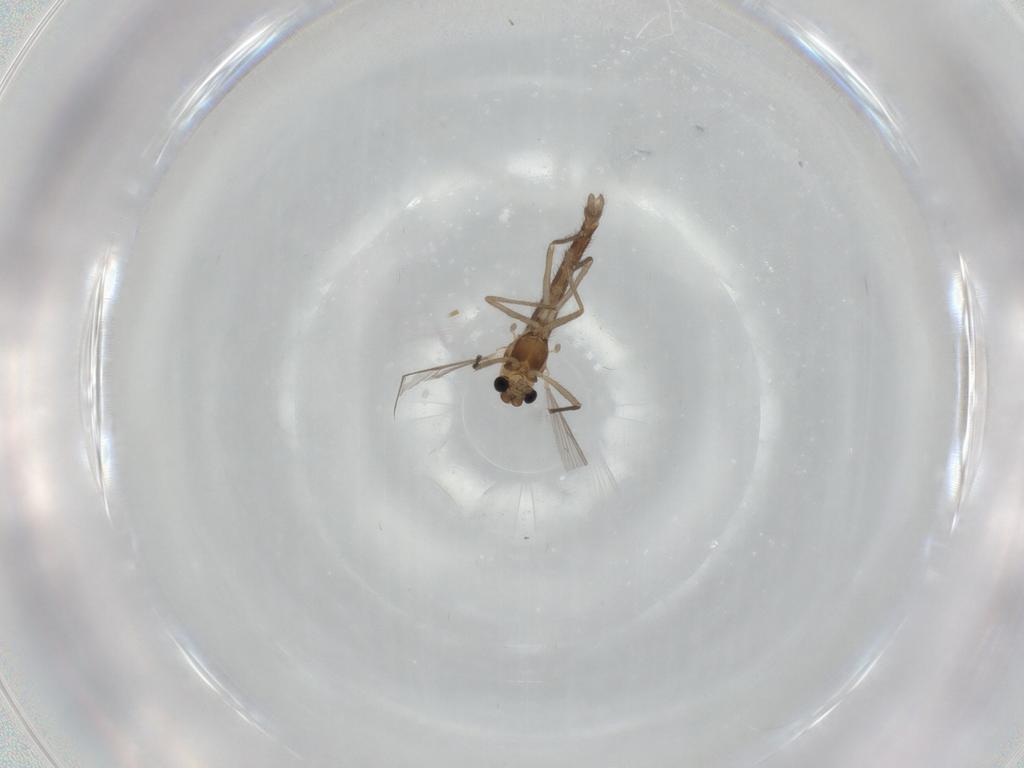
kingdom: Animalia
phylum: Arthropoda
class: Insecta
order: Diptera
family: Chironomidae
